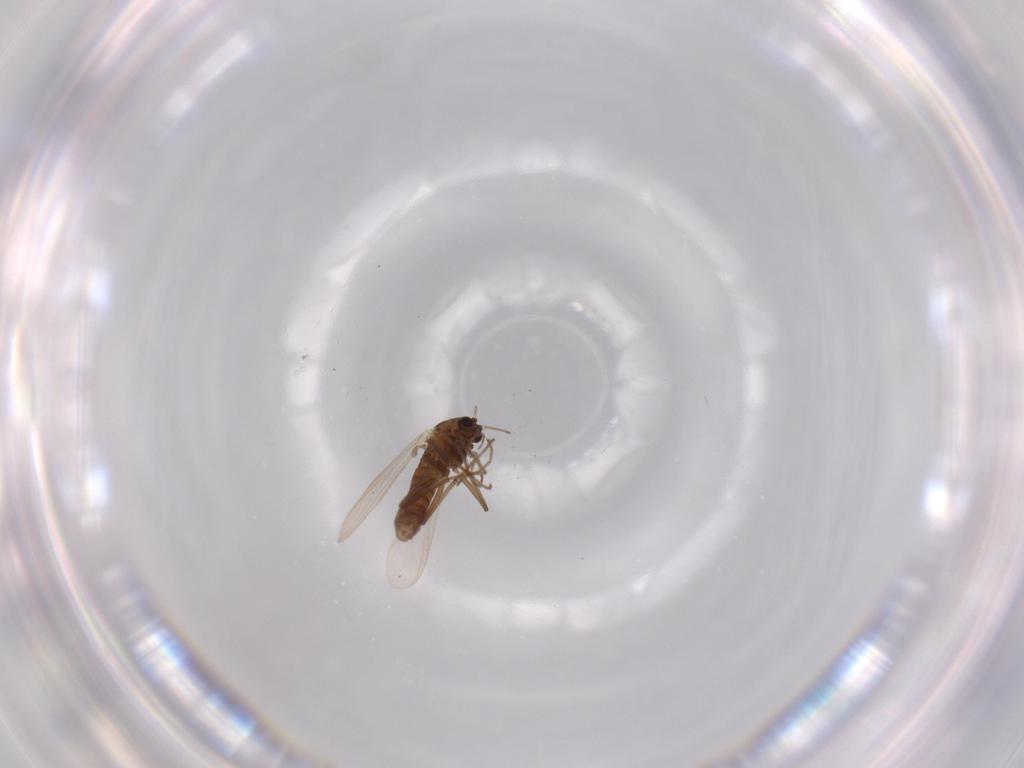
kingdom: Animalia
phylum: Arthropoda
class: Insecta
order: Diptera
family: Chironomidae
